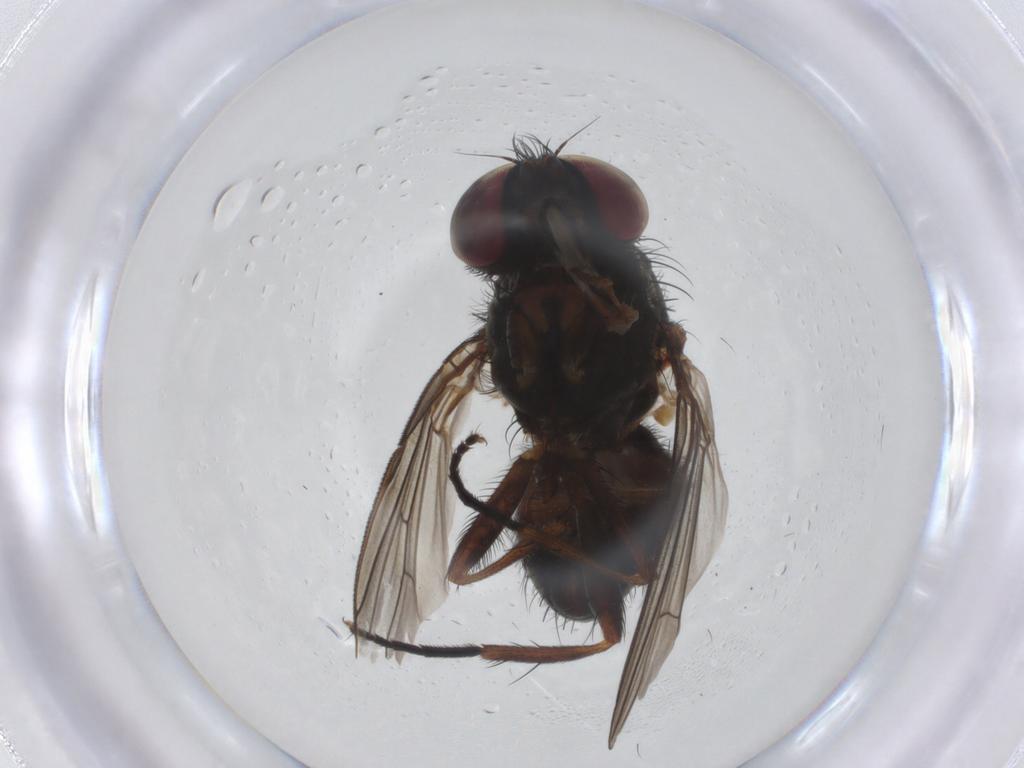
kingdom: Animalia
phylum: Arthropoda
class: Insecta
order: Diptera
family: Fannia
